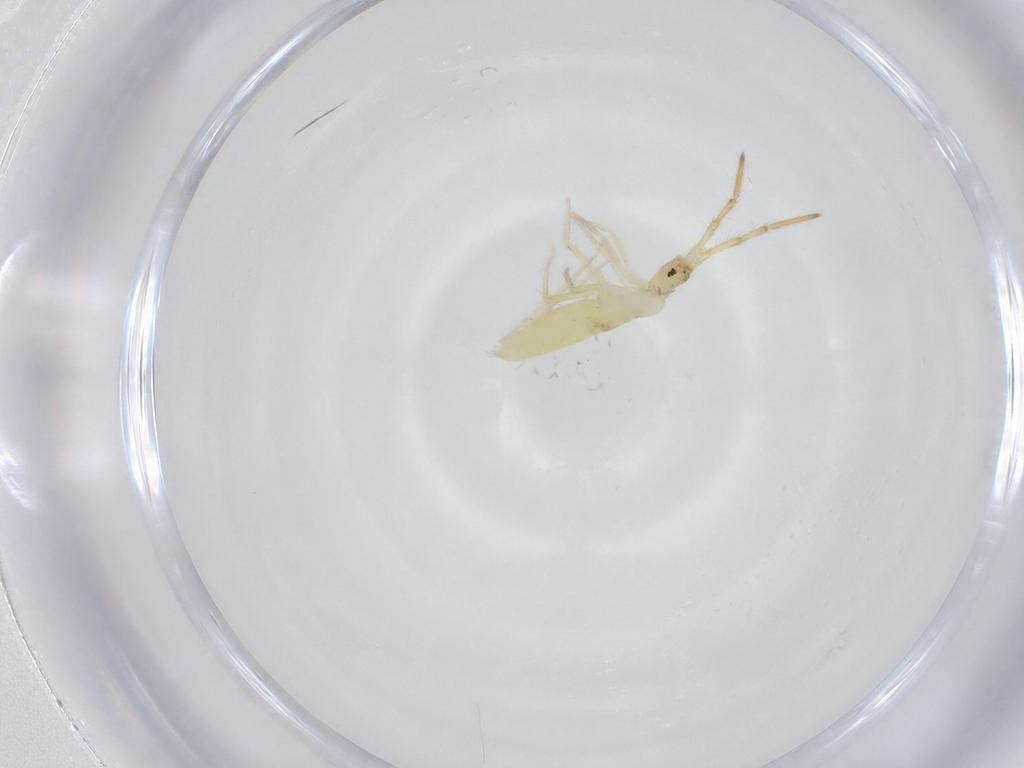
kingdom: Animalia
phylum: Arthropoda
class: Collembola
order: Entomobryomorpha
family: Entomobryidae
